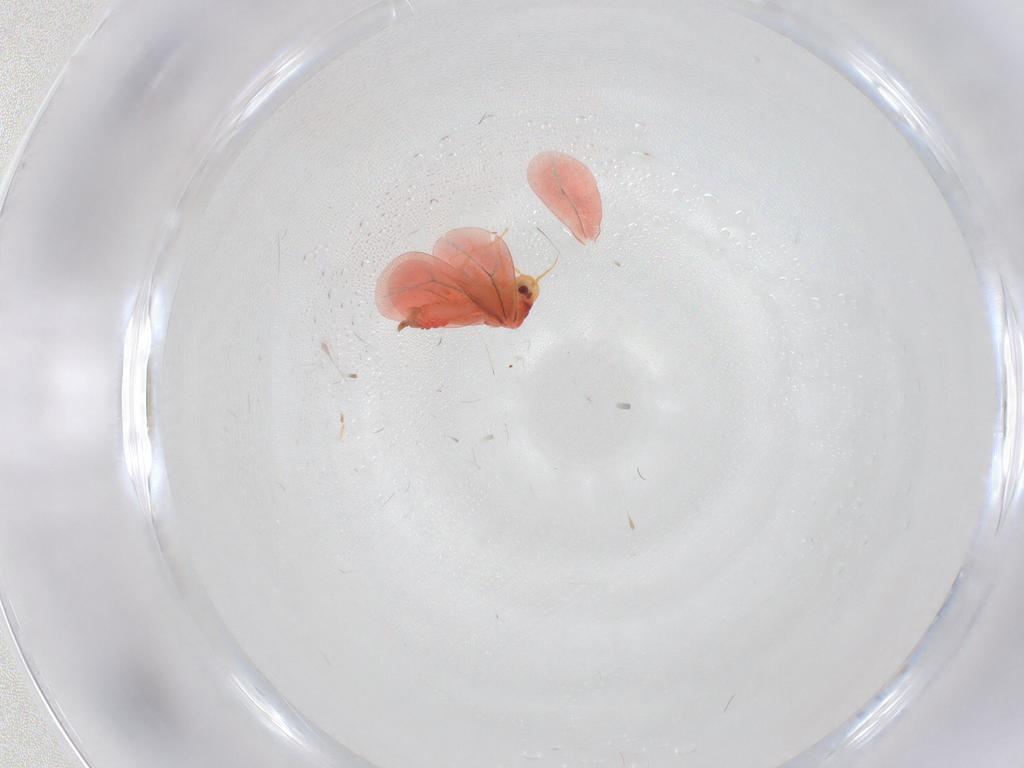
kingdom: Animalia
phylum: Arthropoda
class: Insecta
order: Hemiptera
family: Aleyrodidae
